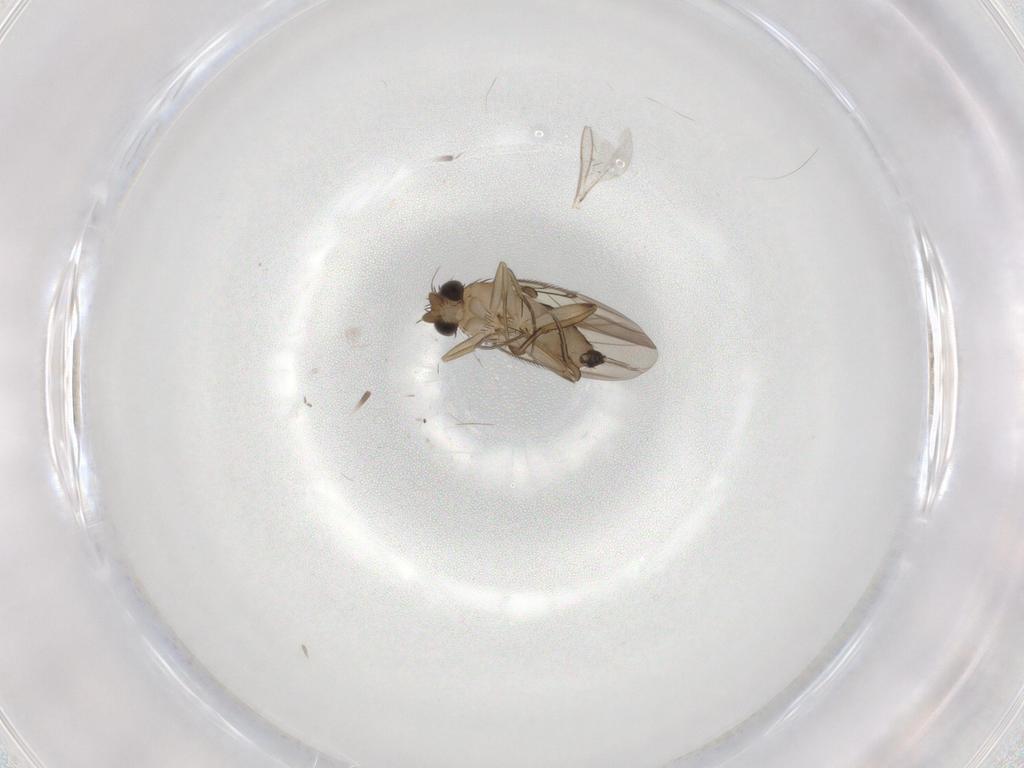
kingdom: Animalia
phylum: Arthropoda
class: Insecta
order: Diptera
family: Phoridae
